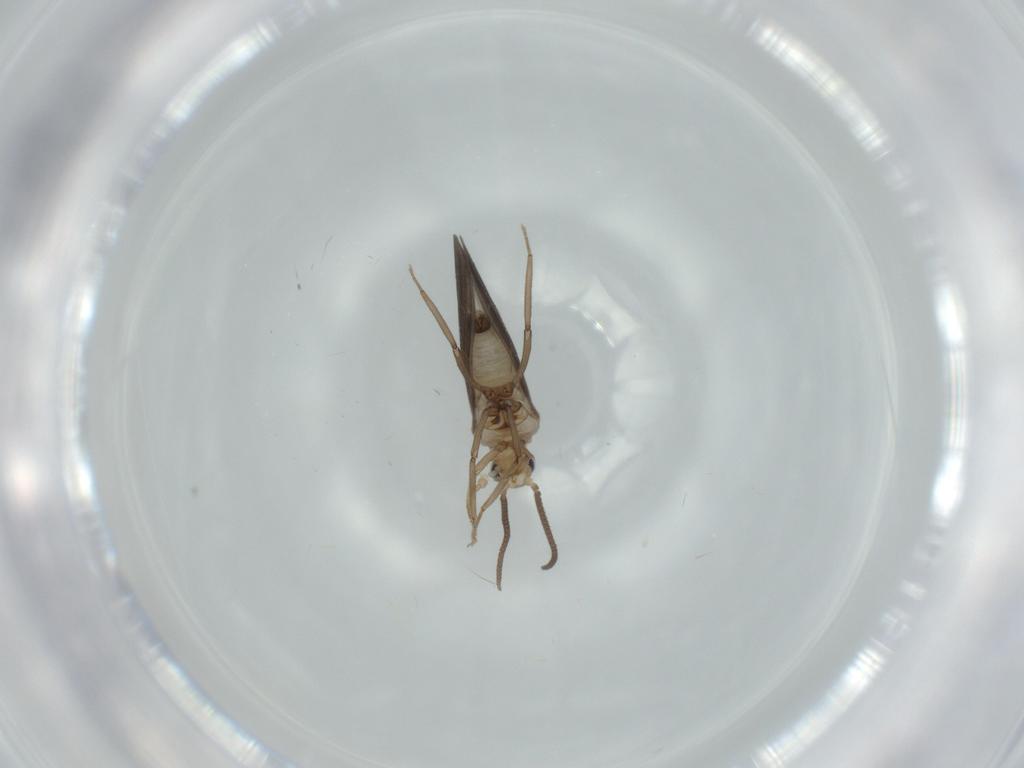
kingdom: Animalia
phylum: Arthropoda
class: Insecta
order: Neuroptera
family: Coniopterygidae
